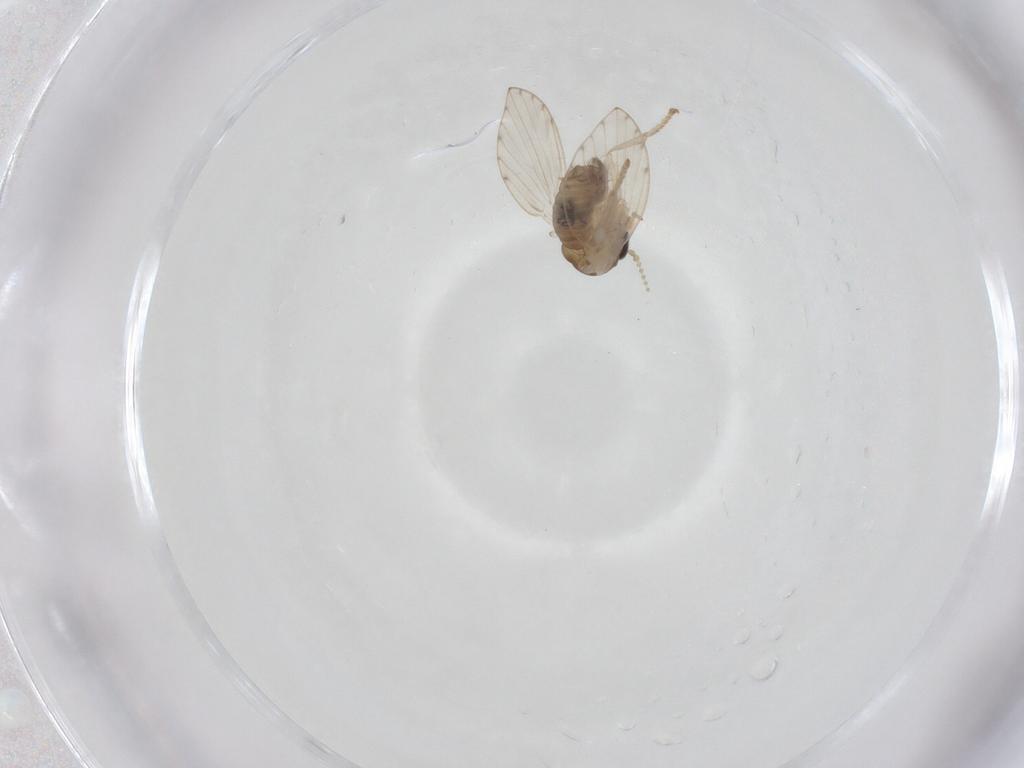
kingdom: Animalia
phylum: Arthropoda
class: Insecta
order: Diptera
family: Psychodidae
